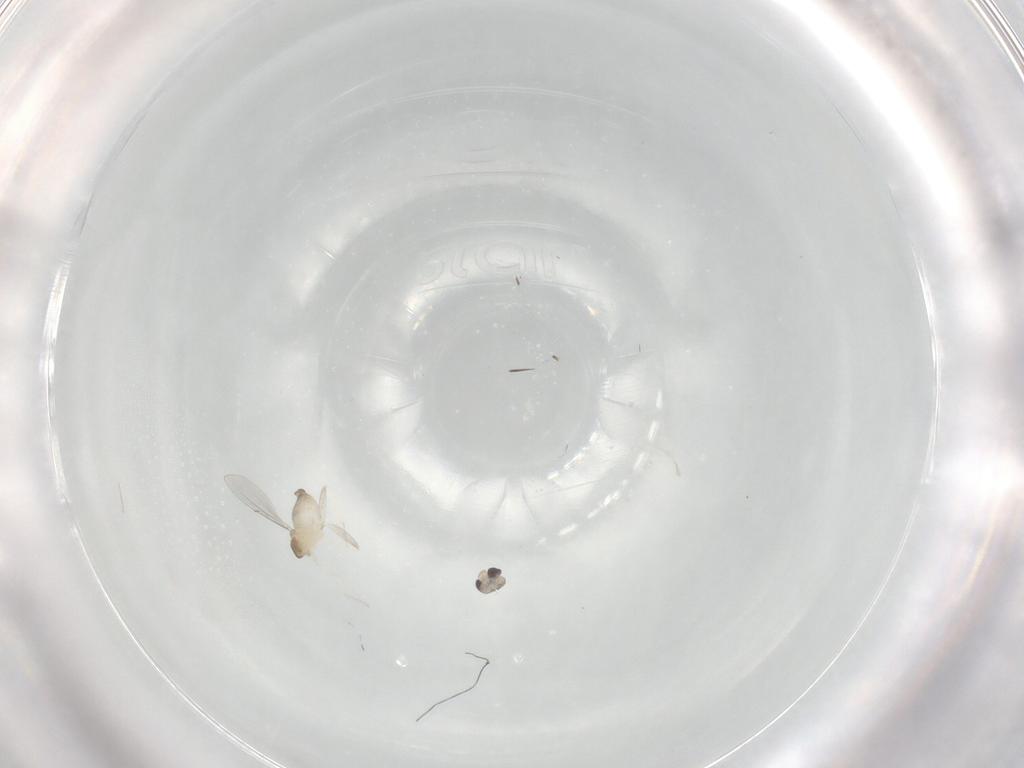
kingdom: Animalia
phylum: Arthropoda
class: Insecta
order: Diptera
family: Cecidomyiidae
